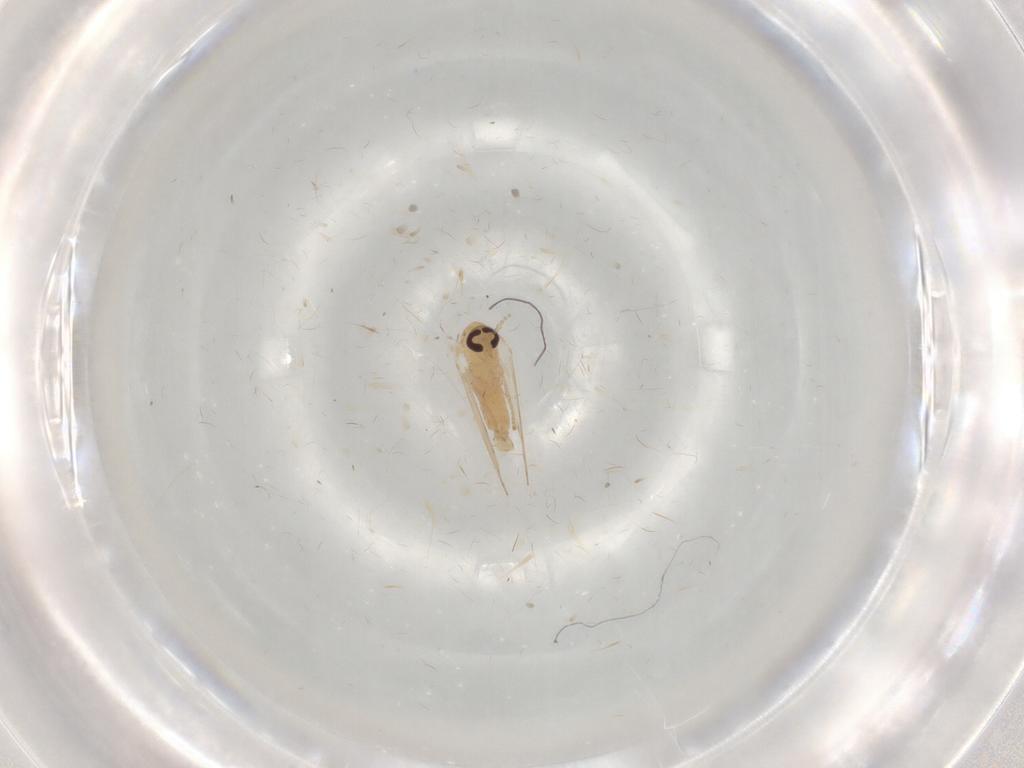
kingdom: Animalia
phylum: Arthropoda
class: Insecta
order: Diptera
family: Psychodidae
